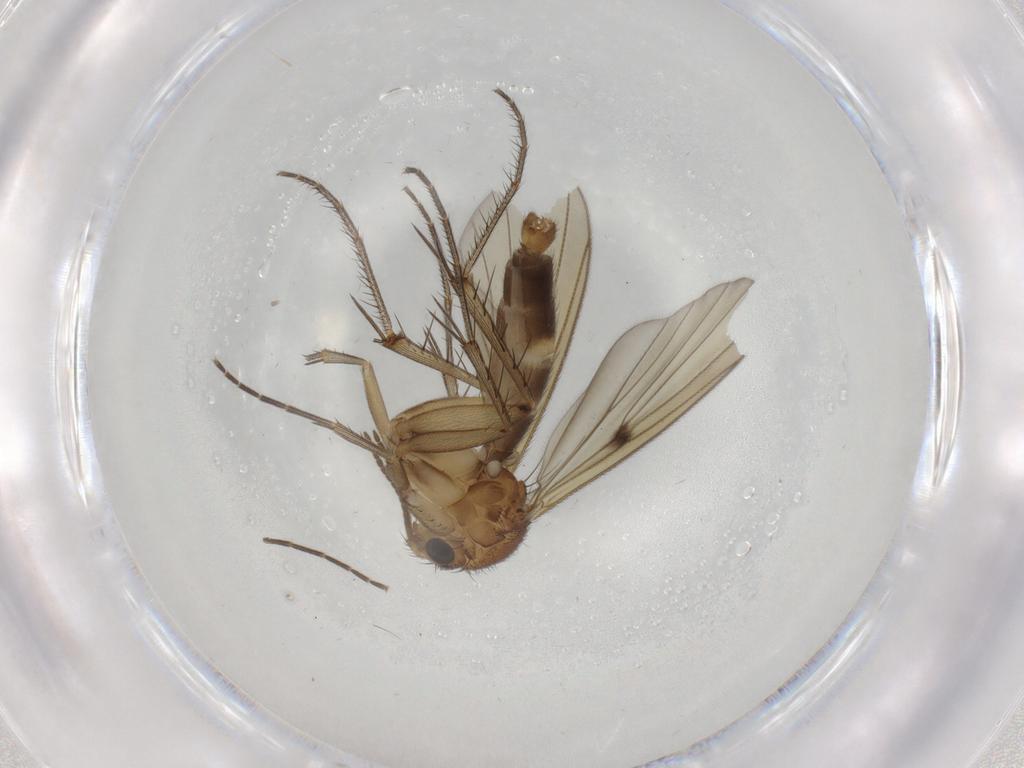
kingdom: Animalia
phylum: Arthropoda
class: Insecta
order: Diptera
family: Mycetophilidae
